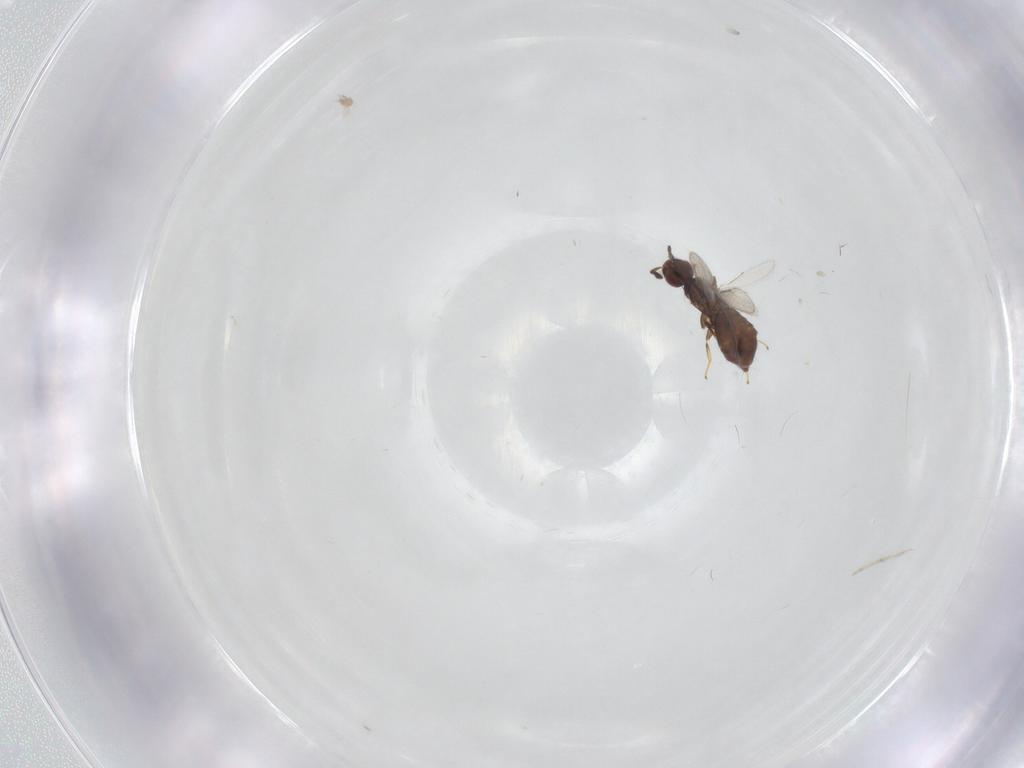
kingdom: Animalia
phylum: Arthropoda
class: Insecta
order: Hymenoptera
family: Aphelinidae
